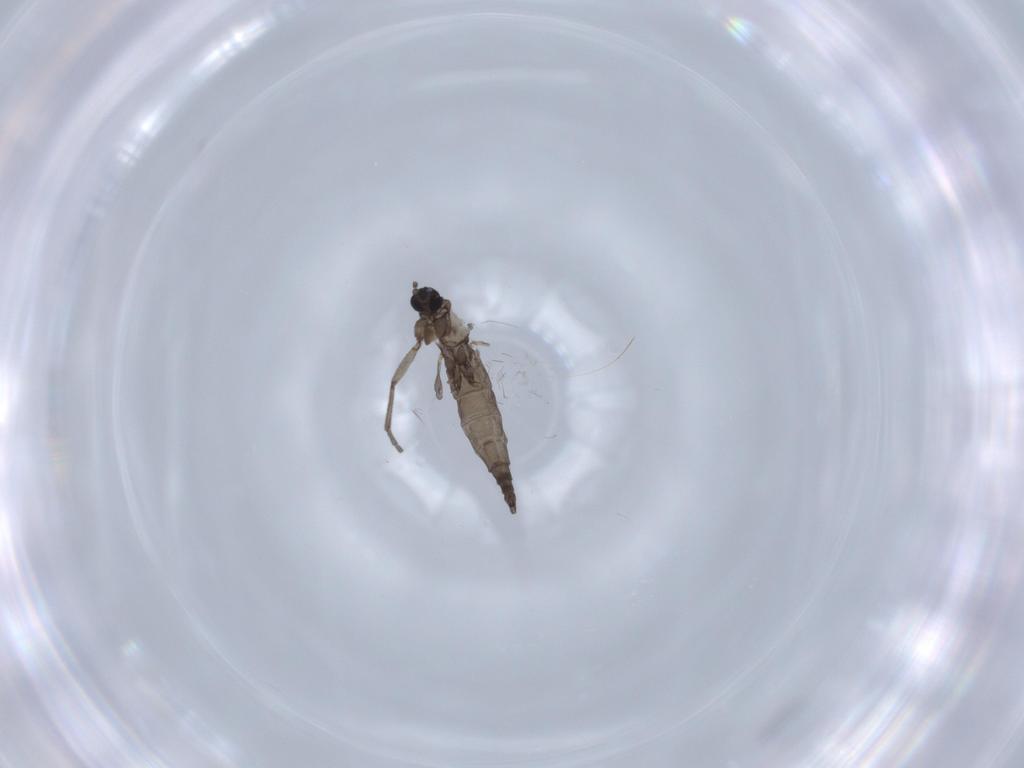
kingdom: Animalia
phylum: Arthropoda
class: Insecta
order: Diptera
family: Sciaridae
